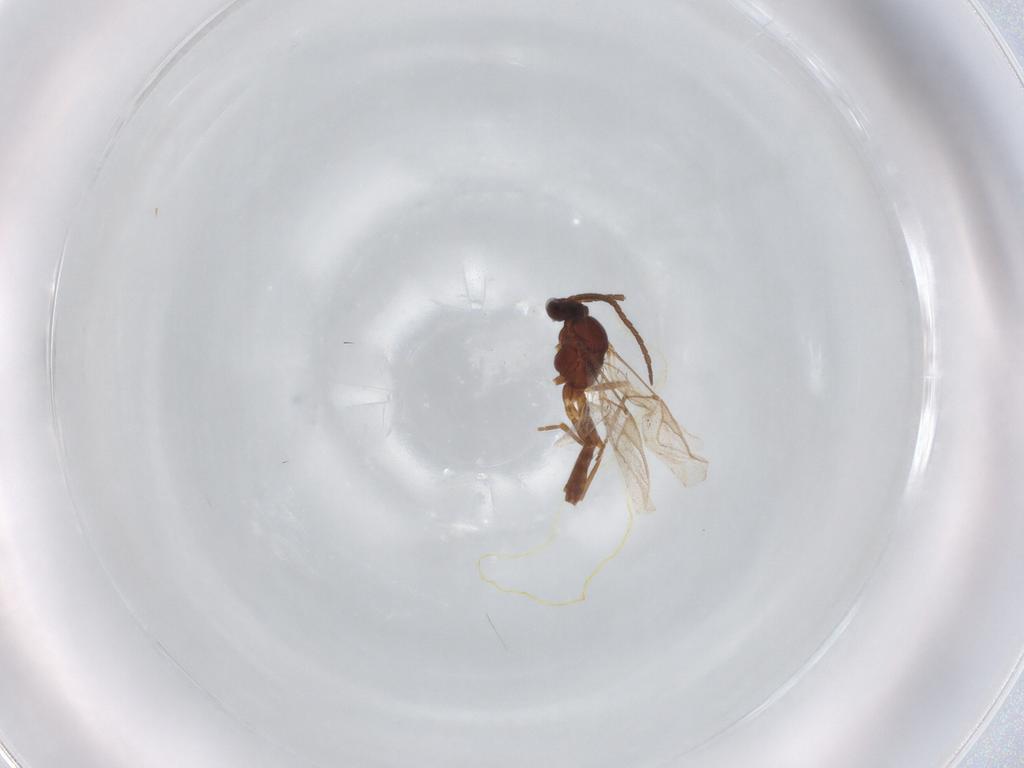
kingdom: Animalia
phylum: Arthropoda
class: Insecta
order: Hymenoptera
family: Braconidae
